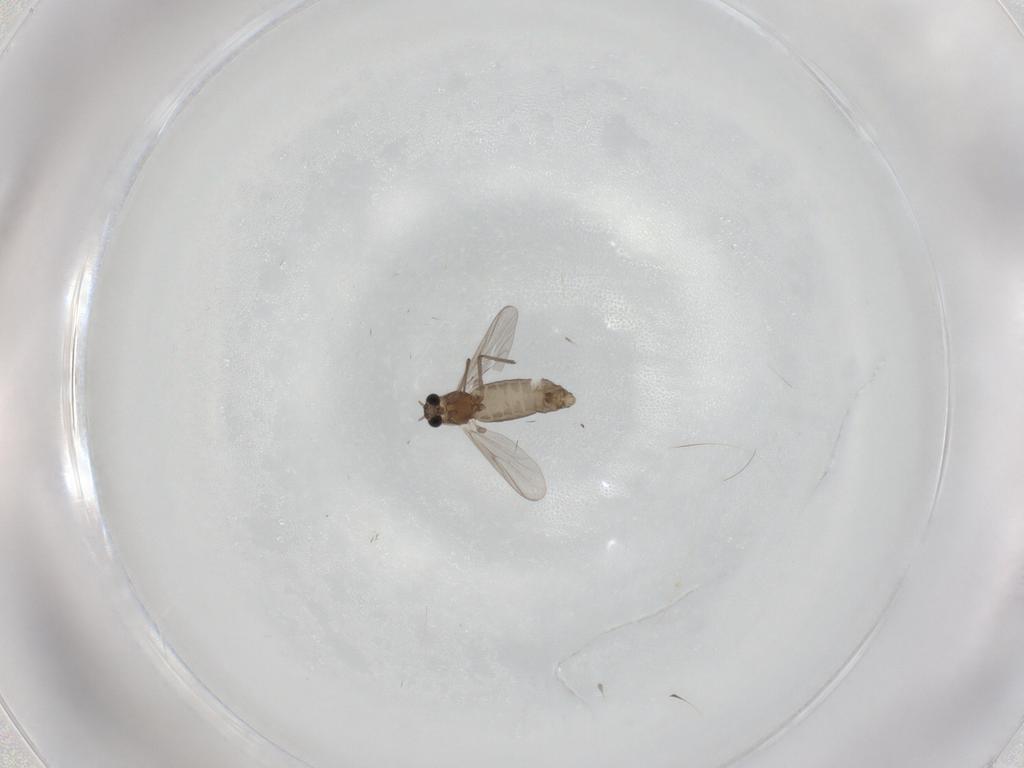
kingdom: Animalia
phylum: Arthropoda
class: Insecta
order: Diptera
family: Chironomidae
